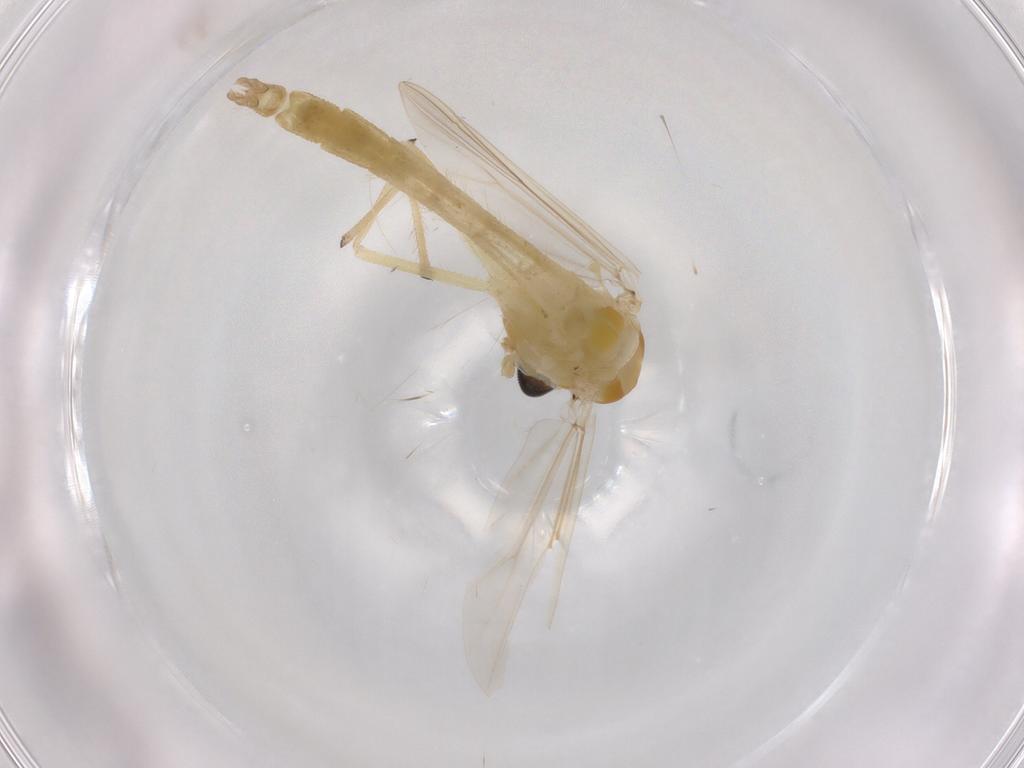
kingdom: Animalia
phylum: Arthropoda
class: Insecta
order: Diptera
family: Chironomidae
